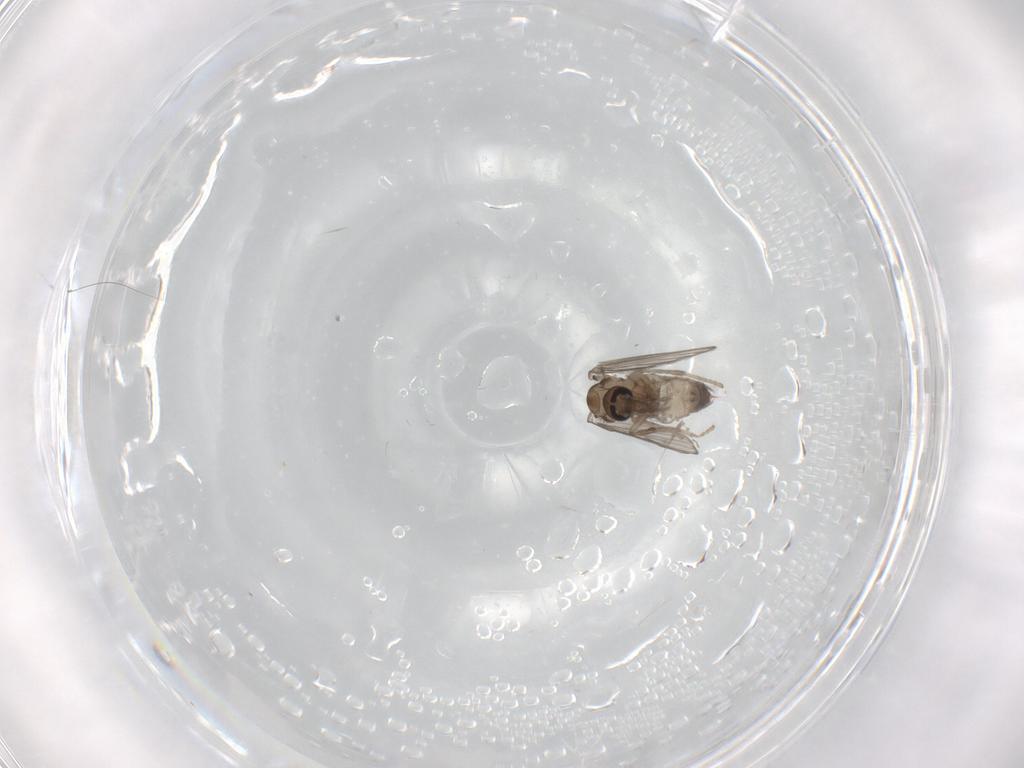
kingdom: Animalia
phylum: Arthropoda
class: Insecta
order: Diptera
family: Psychodidae
